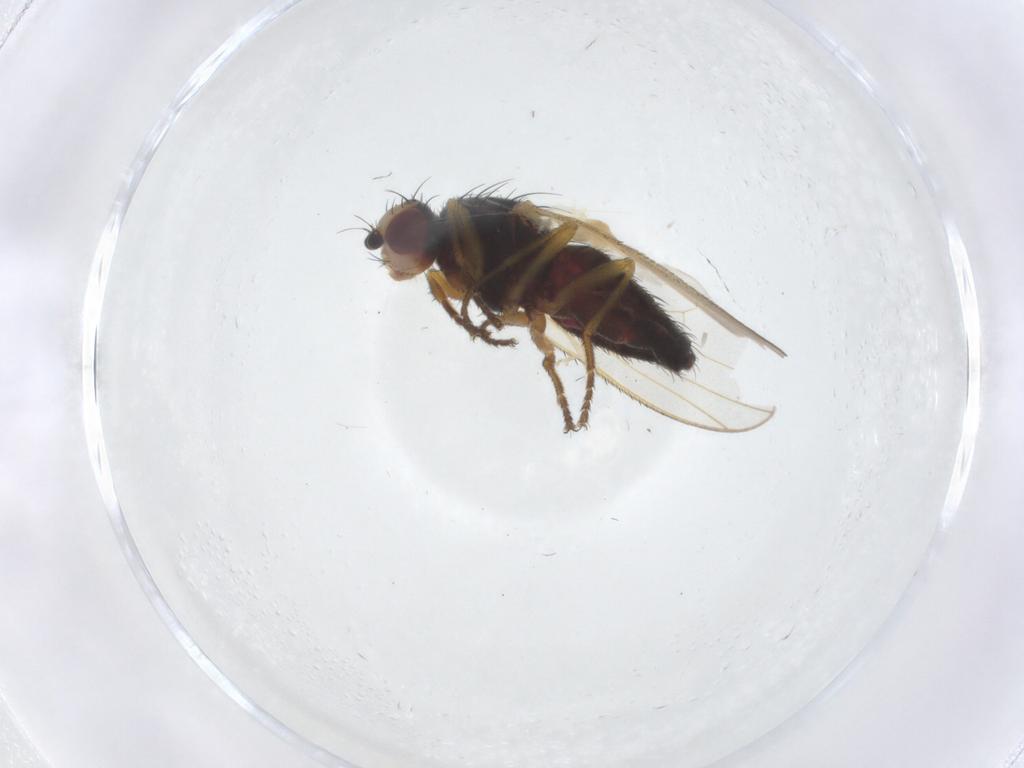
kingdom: Animalia
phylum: Arthropoda
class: Insecta
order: Diptera
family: Heleomyzidae
